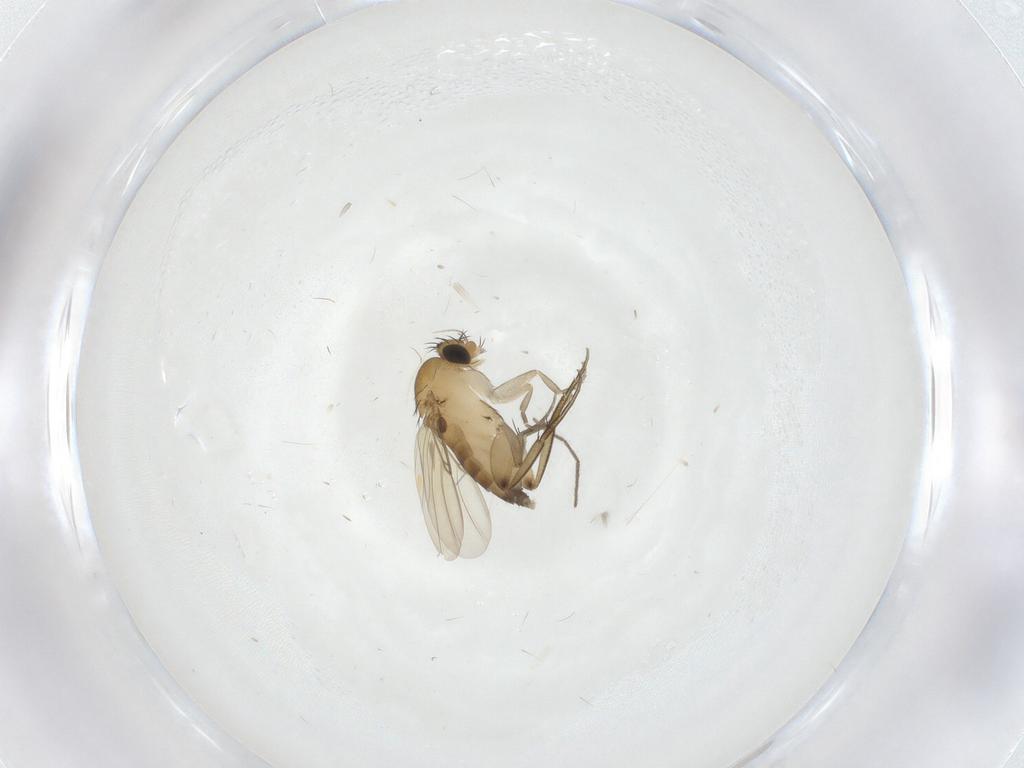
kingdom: Animalia
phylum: Arthropoda
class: Insecta
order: Diptera
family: Phoridae
